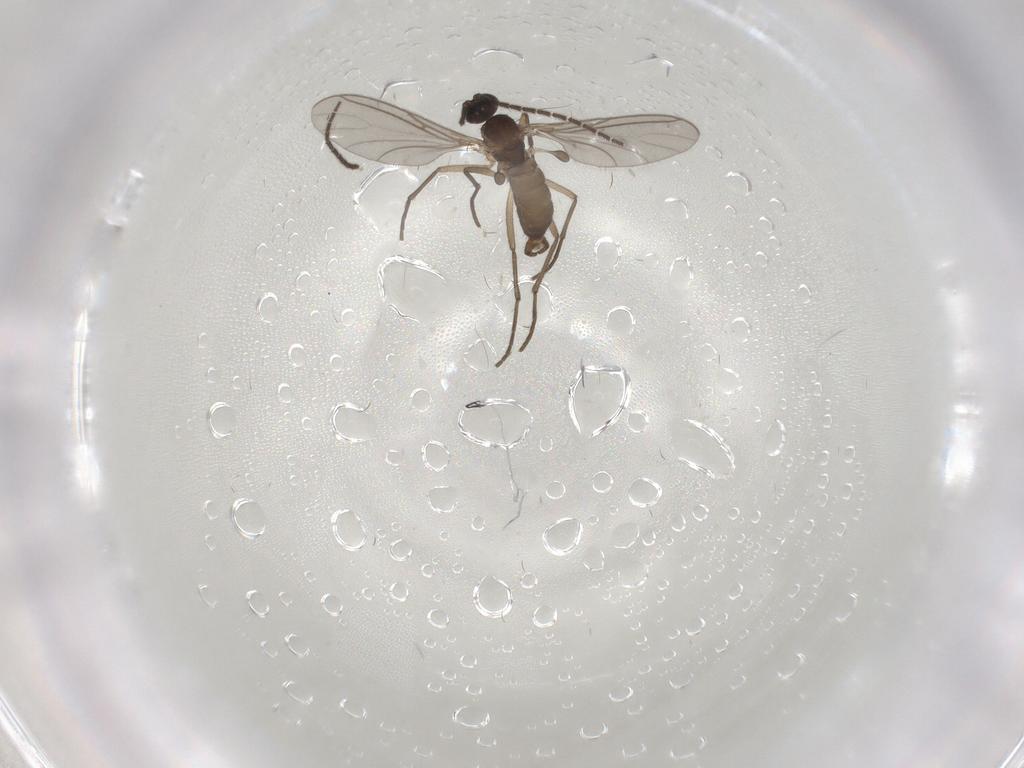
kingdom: Animalia
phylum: Arthropoda
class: Insecta
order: Diptera
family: Sciaridae
